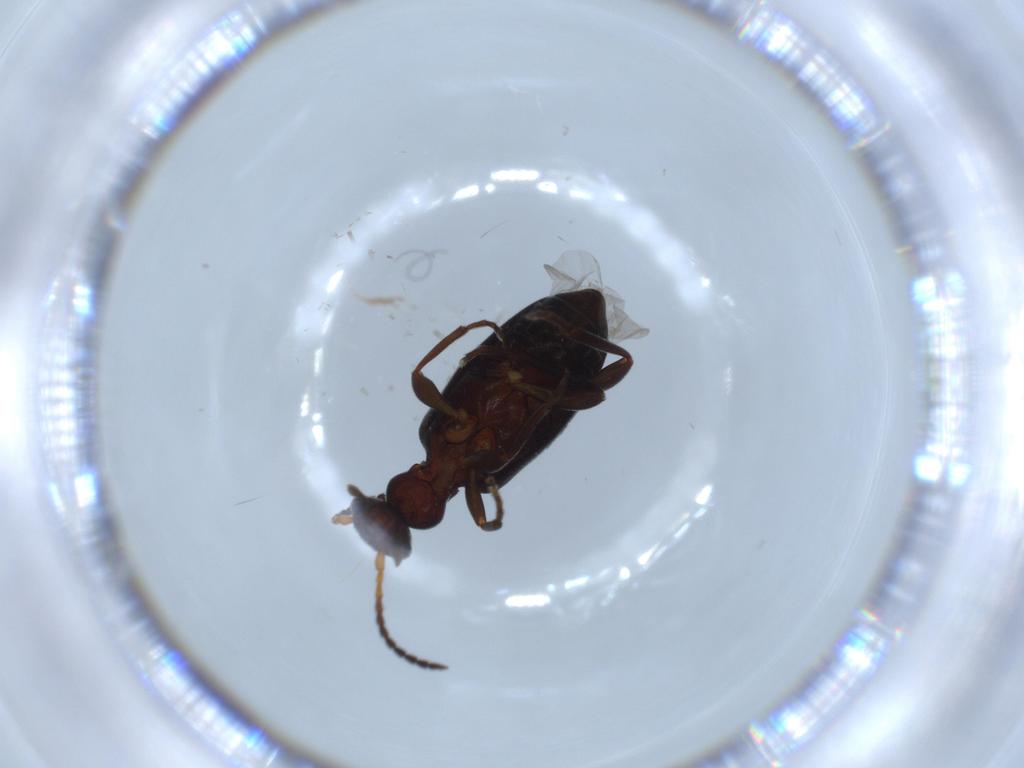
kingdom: Animalia
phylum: Arthropoda
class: Insecta
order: Coleoptera
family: Anthicidae
